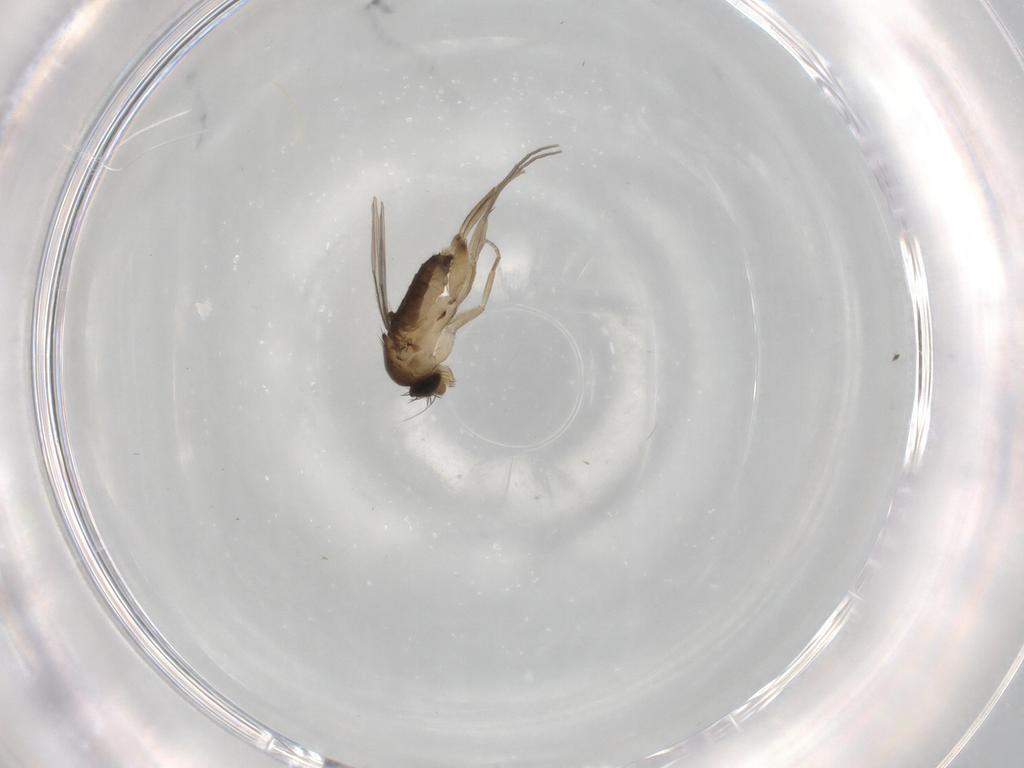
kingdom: Animalia
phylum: Arthropoda
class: Insecta
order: Diptera
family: Phoridae
